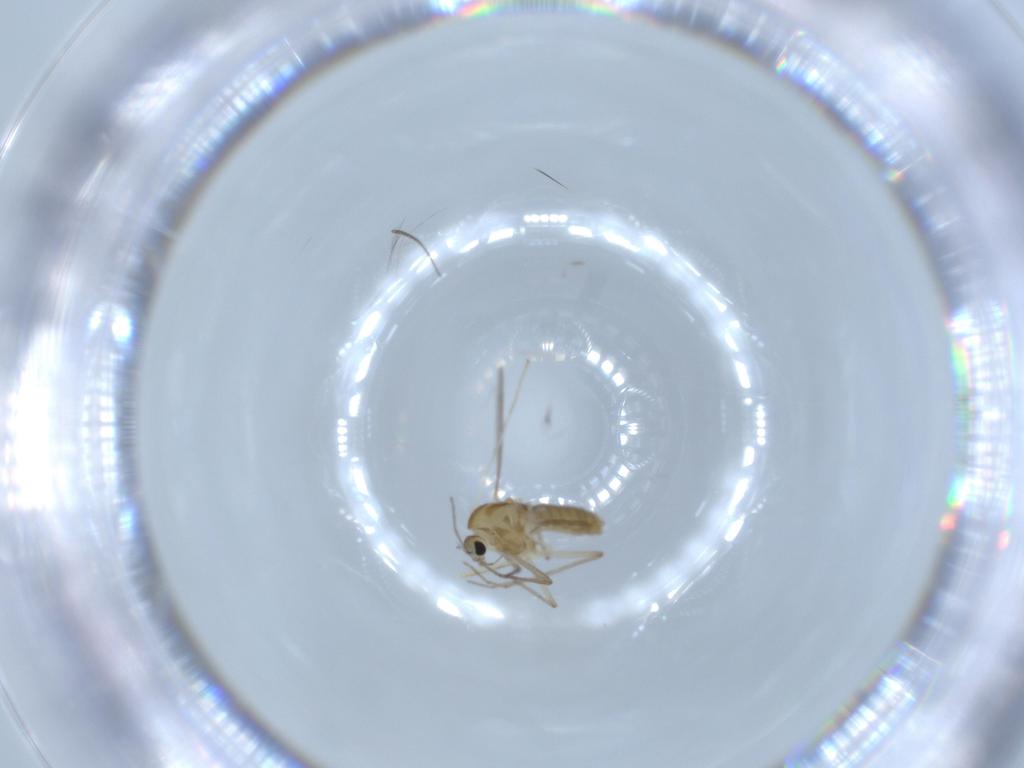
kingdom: Animalia
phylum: Arthropoda
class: Insecta
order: Diptera
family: Chironomidae
